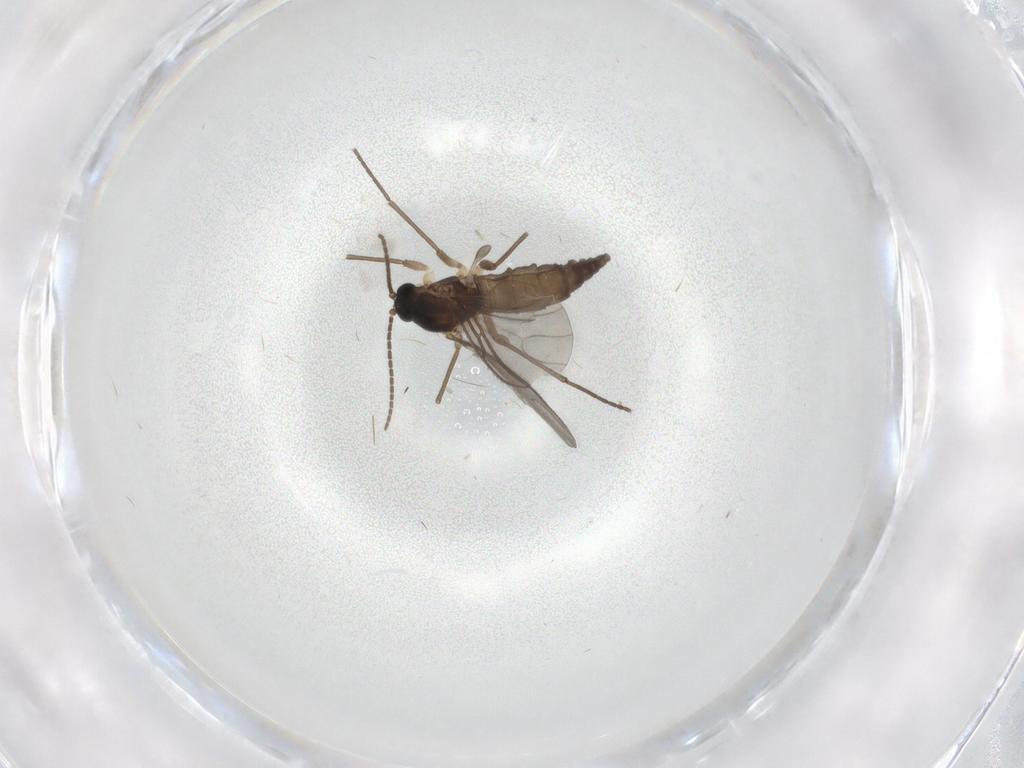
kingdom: Animalia
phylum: Arthropoda
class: Insecta
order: Diptera
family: Sciaridae
